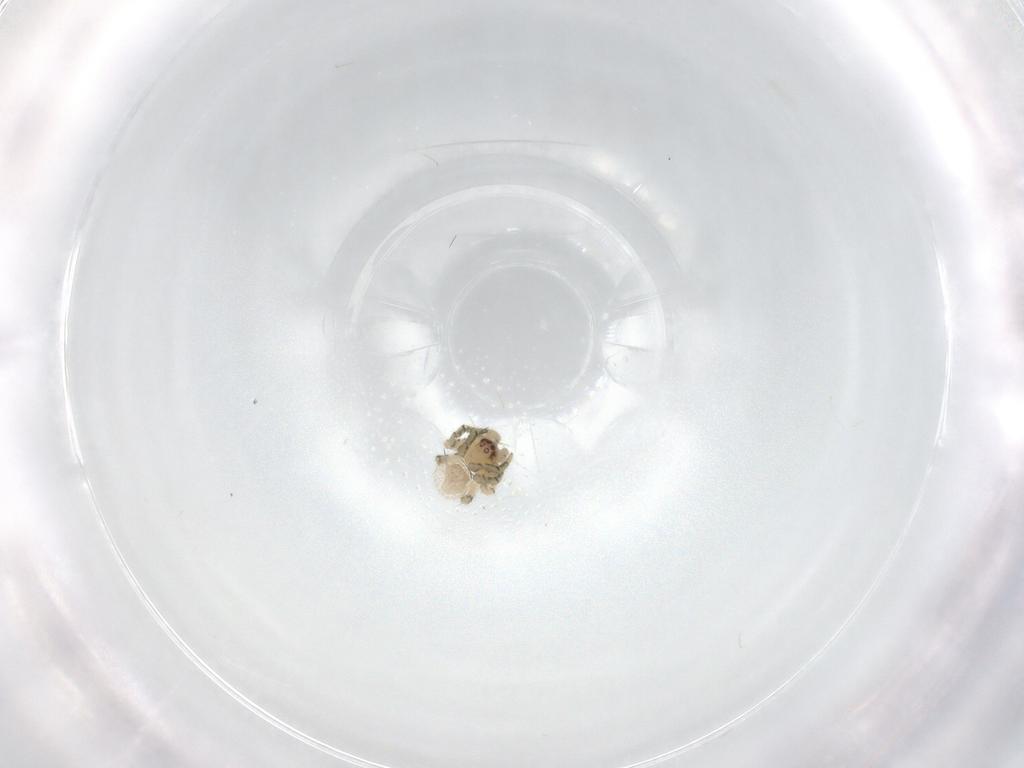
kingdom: Animalia
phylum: Arthropoda
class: Arachnida
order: Araneae
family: Theridiidae
